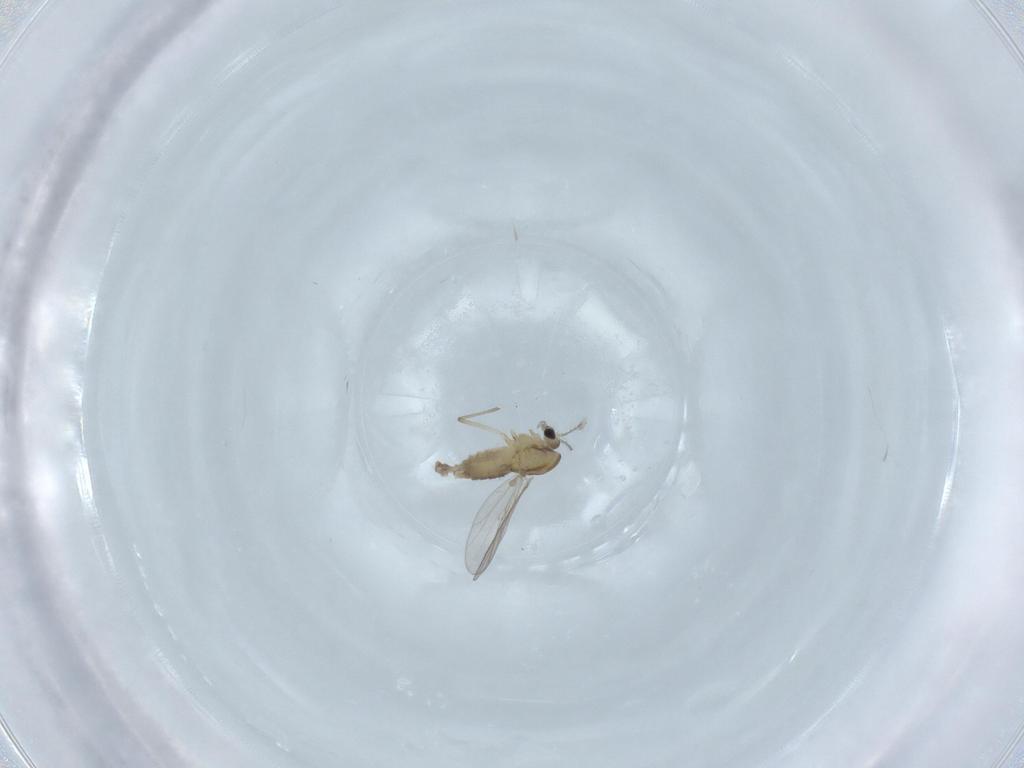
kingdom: Animalia
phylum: Arthropoda
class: Insecta
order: Diptera
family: Chironomidae
